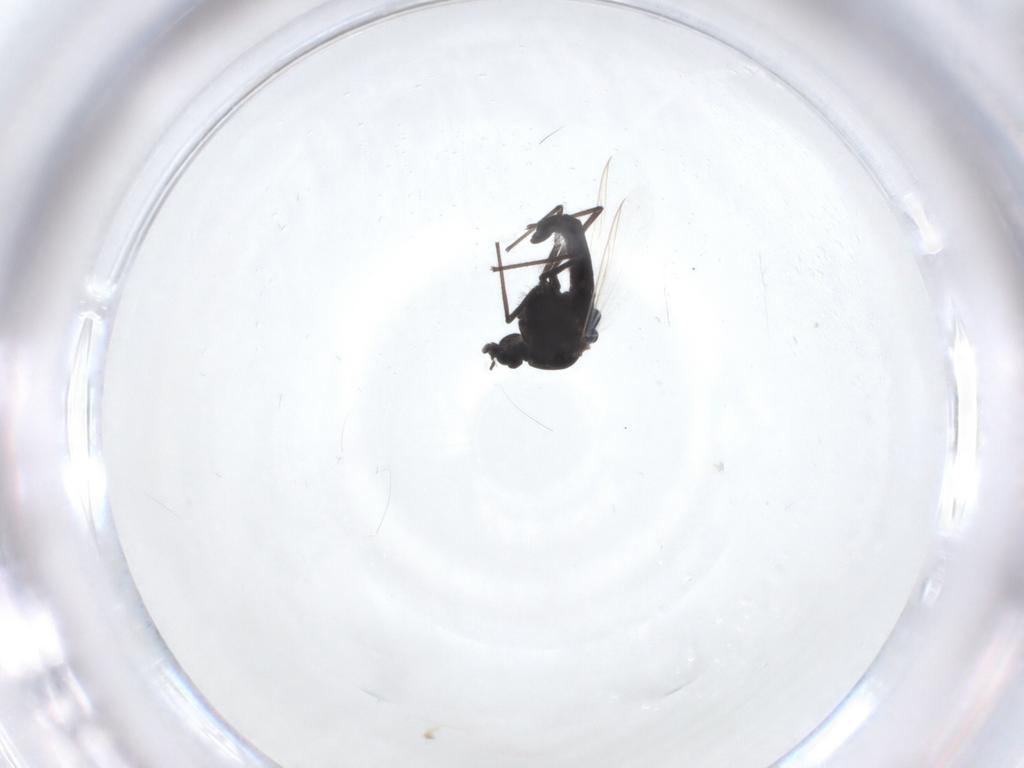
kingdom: Animalia
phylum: Arthropoda
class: Insecta
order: Diptera
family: Chironomidae
